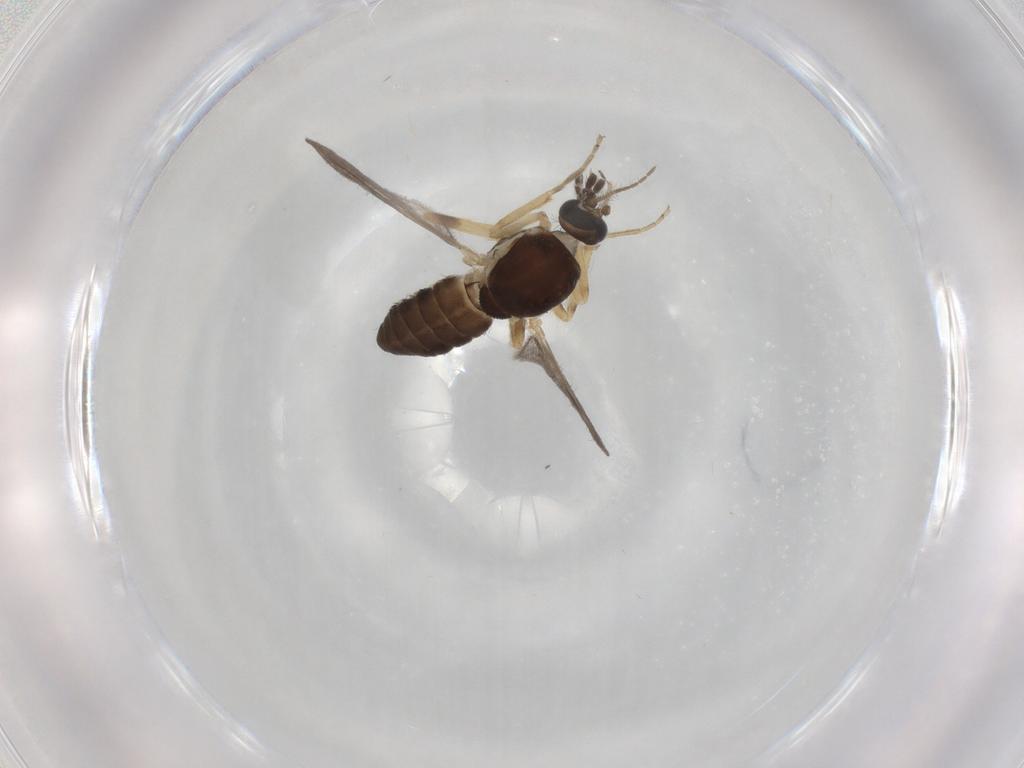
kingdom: Animalia
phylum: Arthropoda
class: Insecta
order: Diptera
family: Ceratopogonidae
